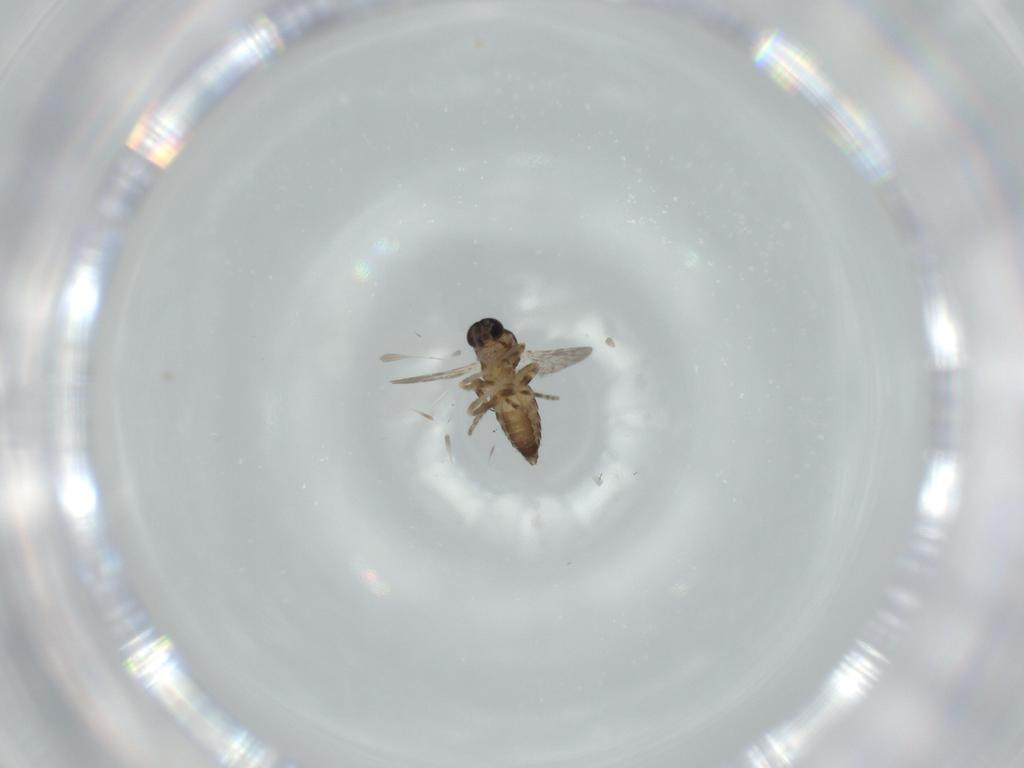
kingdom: Animalia
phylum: Arthropoda
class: Insecta
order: Diptera
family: Ceratopogonidae
